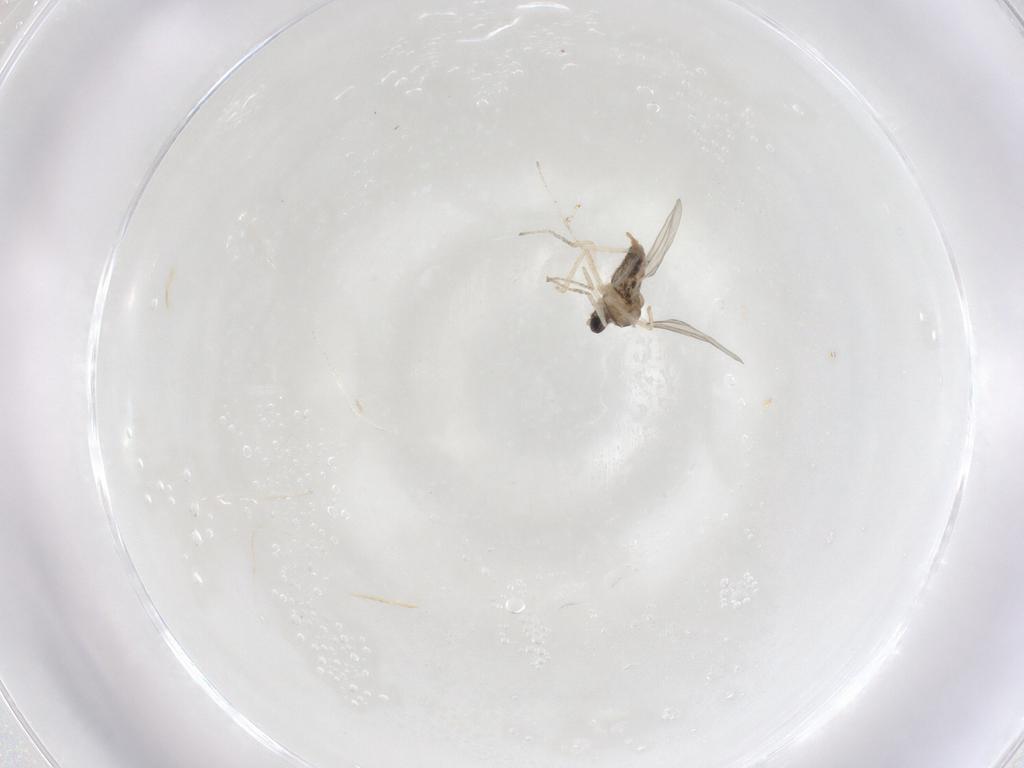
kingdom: Animalia
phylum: Arthropoda
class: Insecta
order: Diptera
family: Cecidomyiidae
